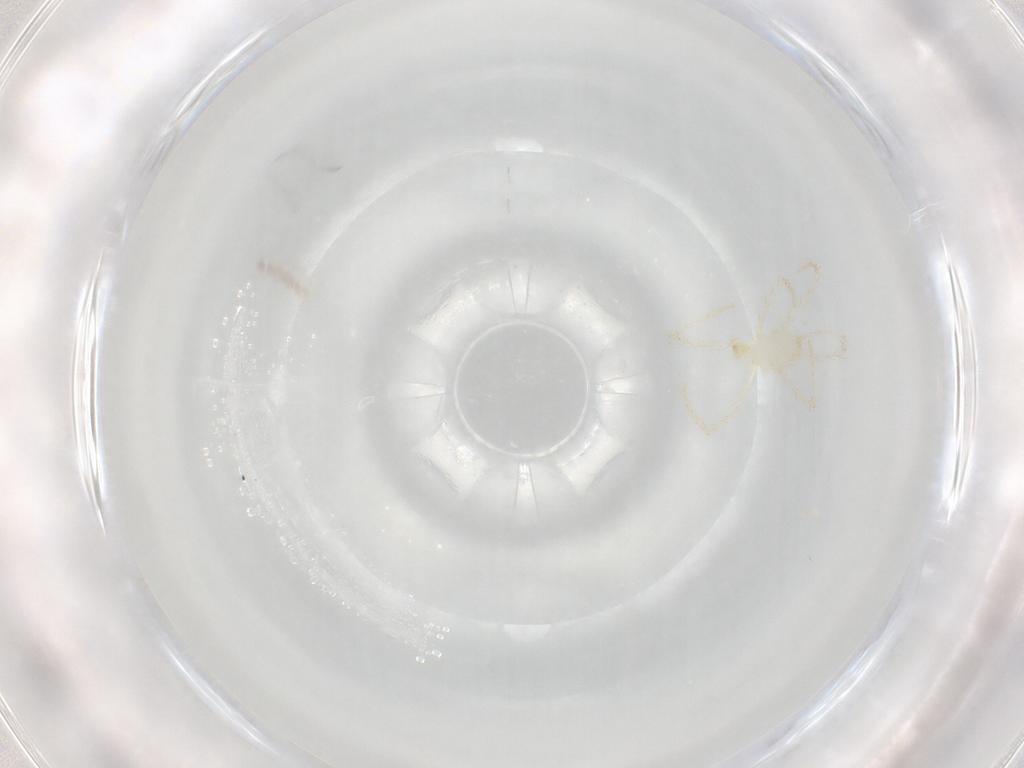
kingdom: Animalia
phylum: Arthropoda
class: Arachnida
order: Trombidiformes
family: Erythraeidae
